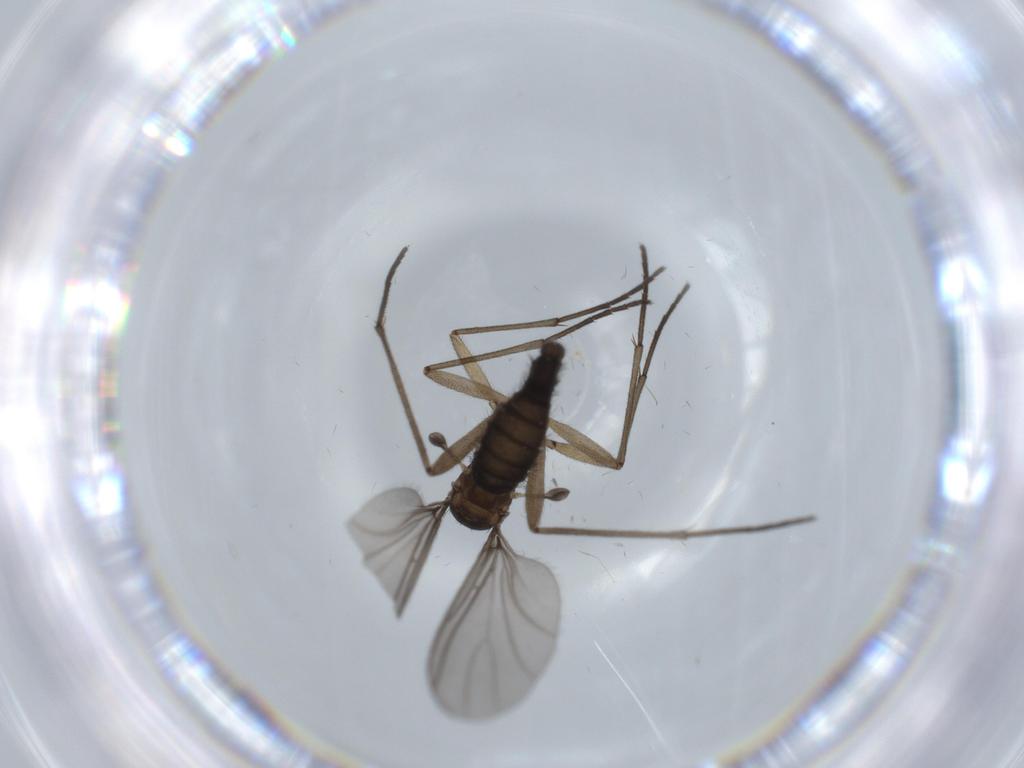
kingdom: Animalia
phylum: Arthropoda
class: Insecta
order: Diptera
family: Sciaridae
